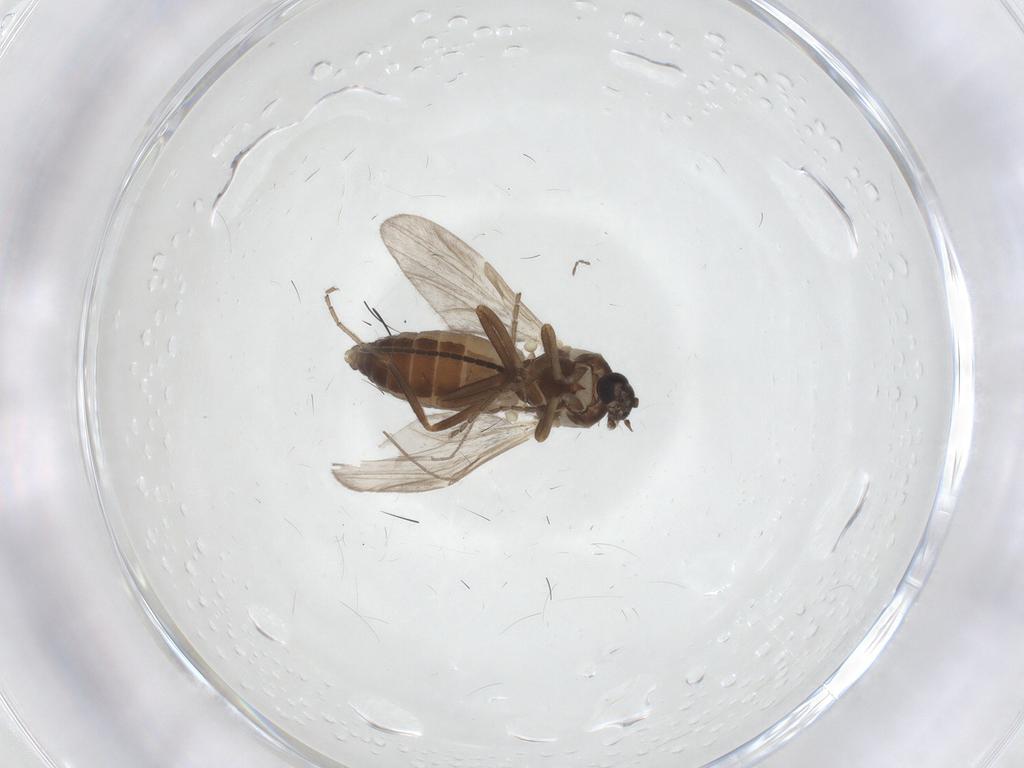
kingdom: Animalia
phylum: Arthropoda
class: Insecta
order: Diptera
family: Ceratopogonidae
